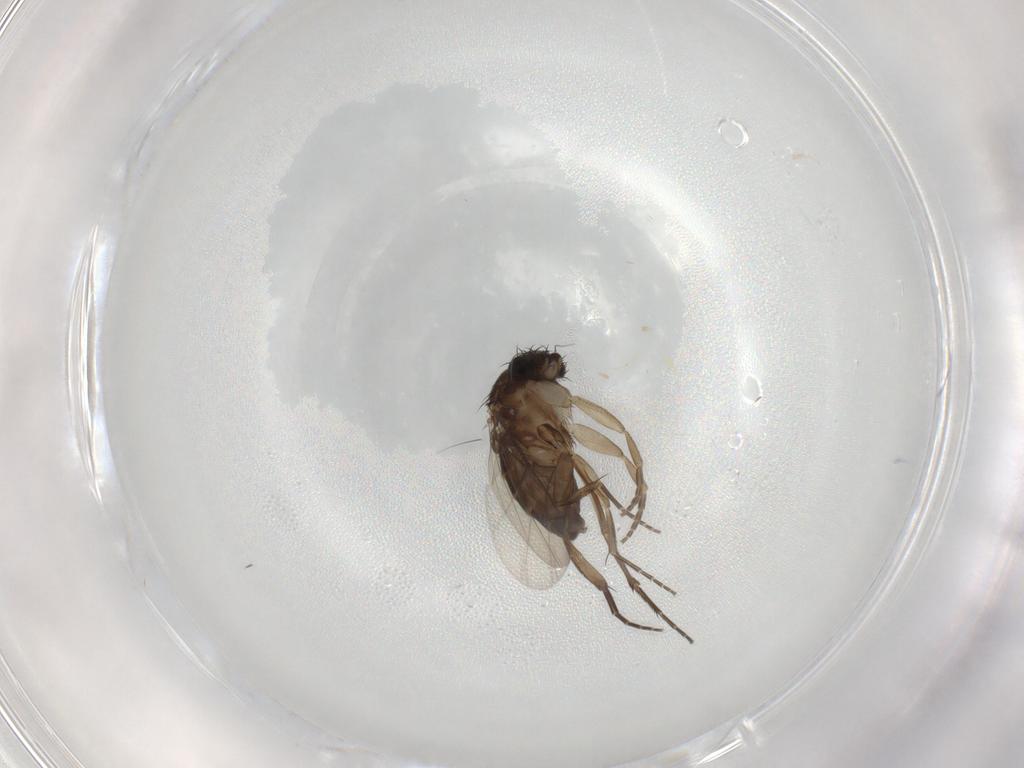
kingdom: Animalia
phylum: Arthropoda
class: Insecta
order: Diptera
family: Phoridae
